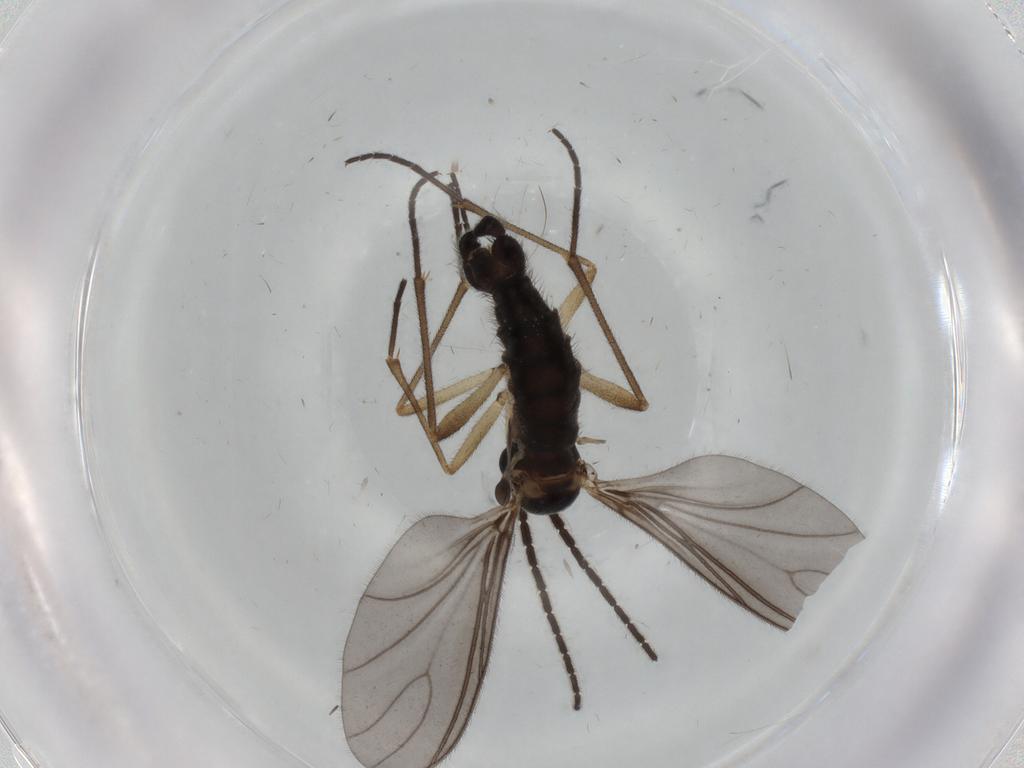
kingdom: Animalia
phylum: Arthropoda
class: Insecta
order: Diptera
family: Sciaridae
